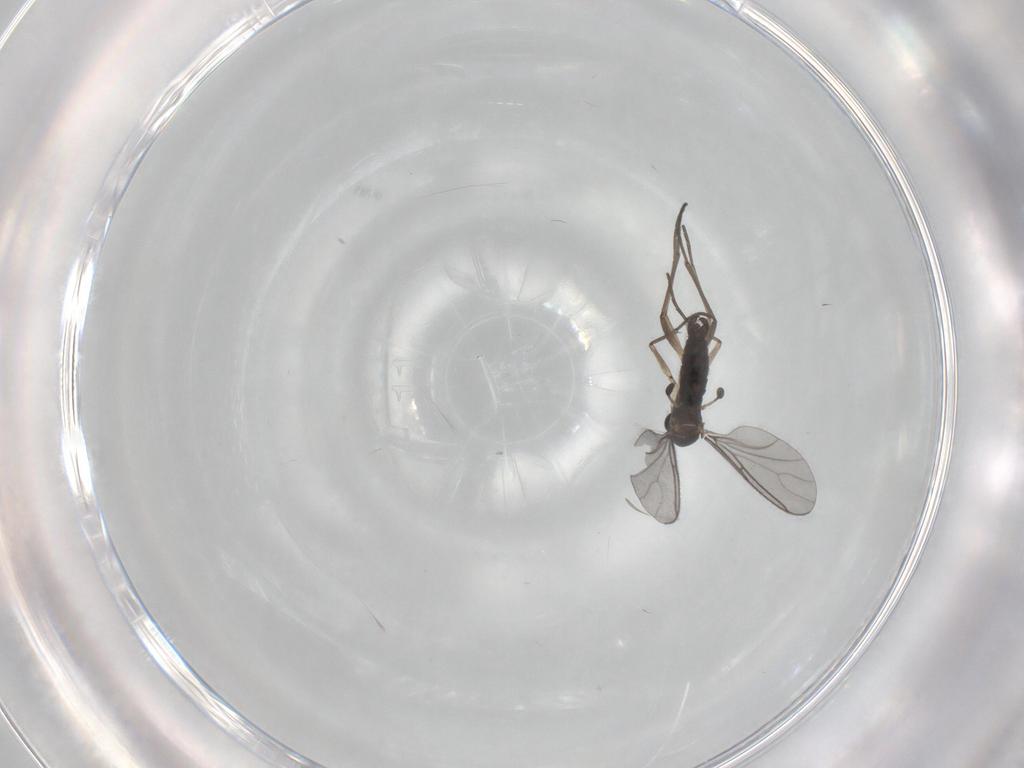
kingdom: Animalia
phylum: Arthropoda
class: Insecta
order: Diptera
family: Sciaridae
